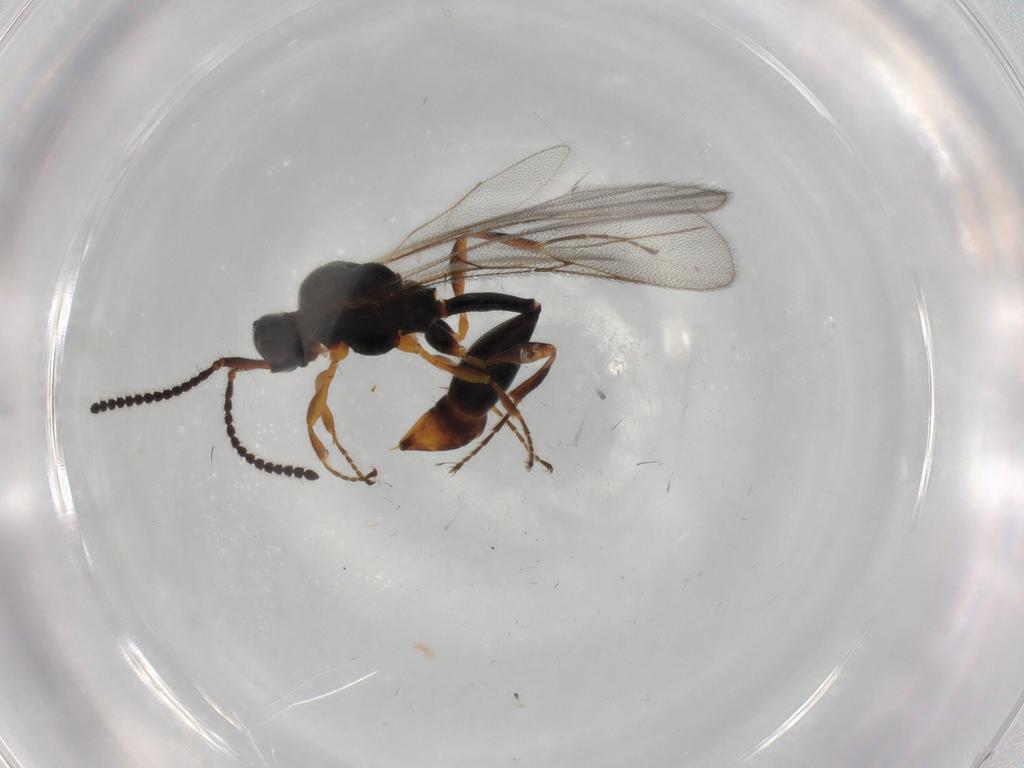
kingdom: Animalia
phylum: Arthropoda
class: Insecta
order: Hymenoptera
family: Diapriidae
